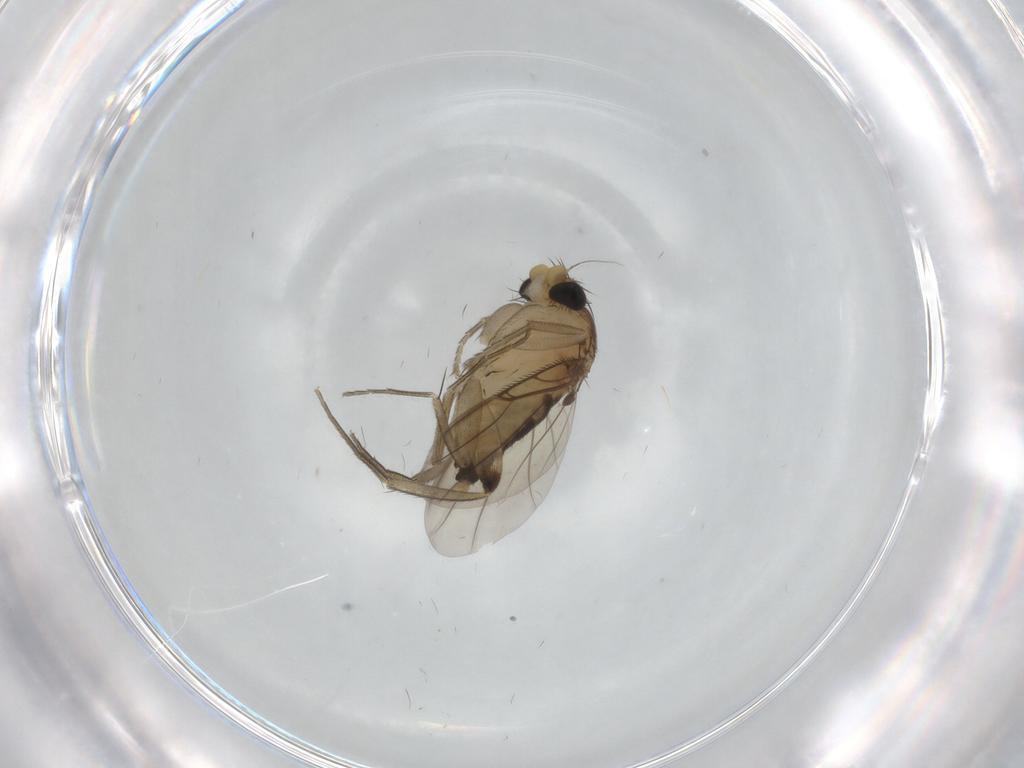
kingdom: Animalia
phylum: Arthropoda
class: Insecta
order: Diptera
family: Phoridae
